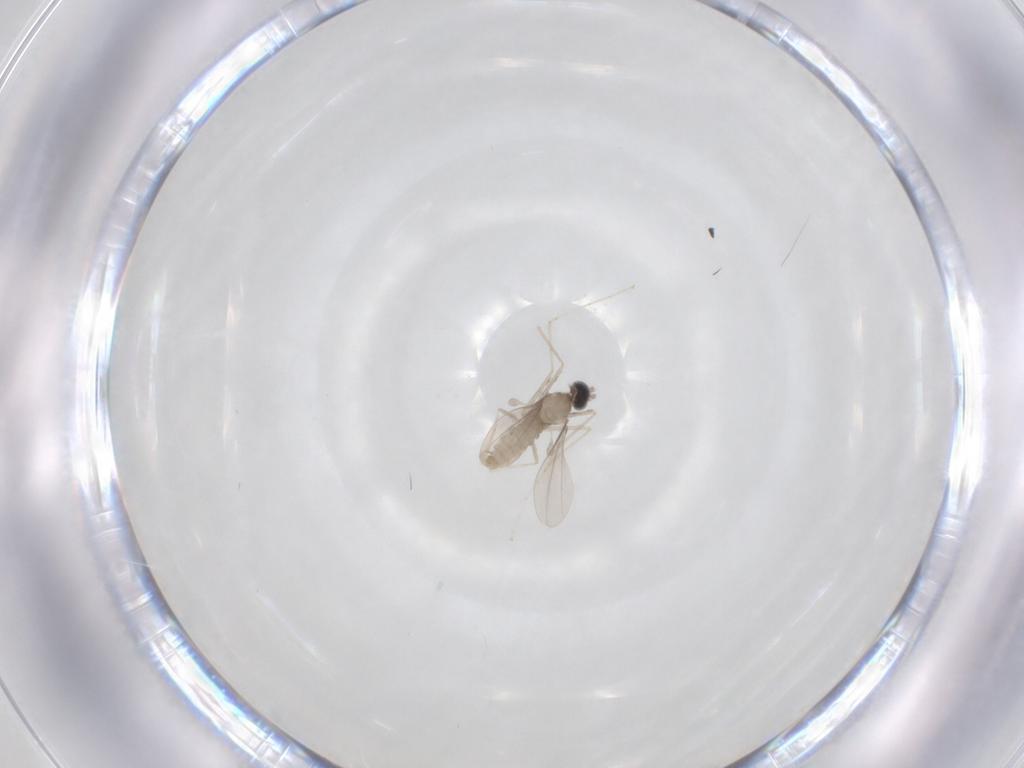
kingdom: Animalia
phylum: Arthropoda
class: Insecta
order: Diptera
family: Cecidomyiidae
